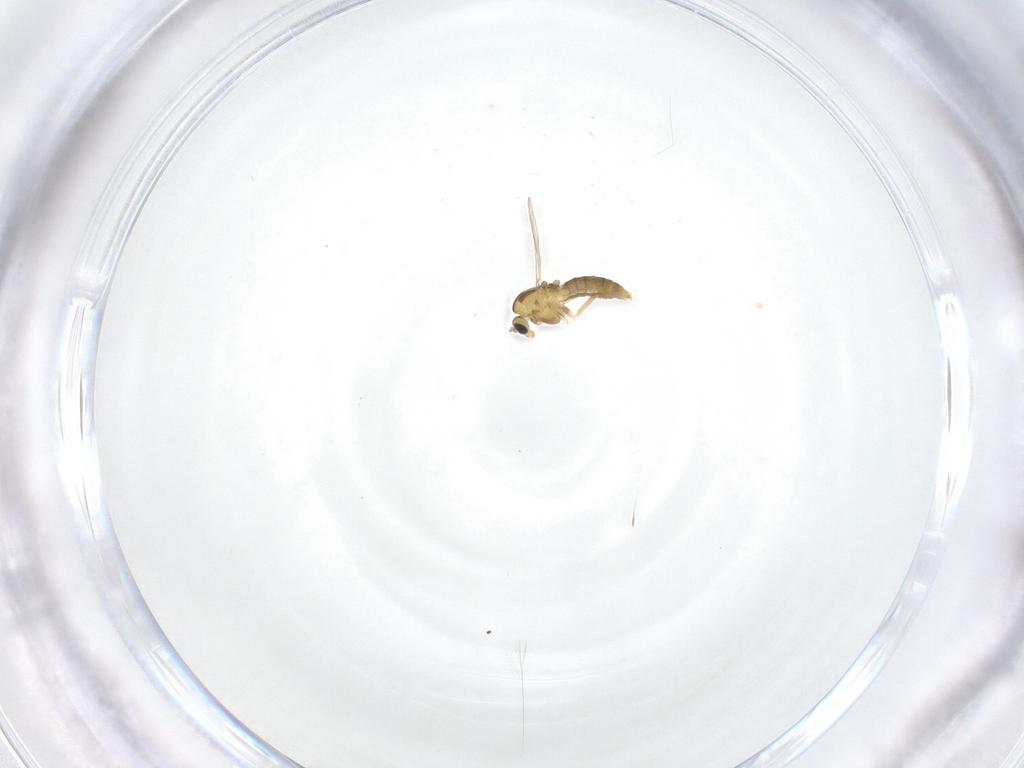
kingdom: Animalia
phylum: Arthropoda
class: Insecta
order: Diptera
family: Chironomidae
